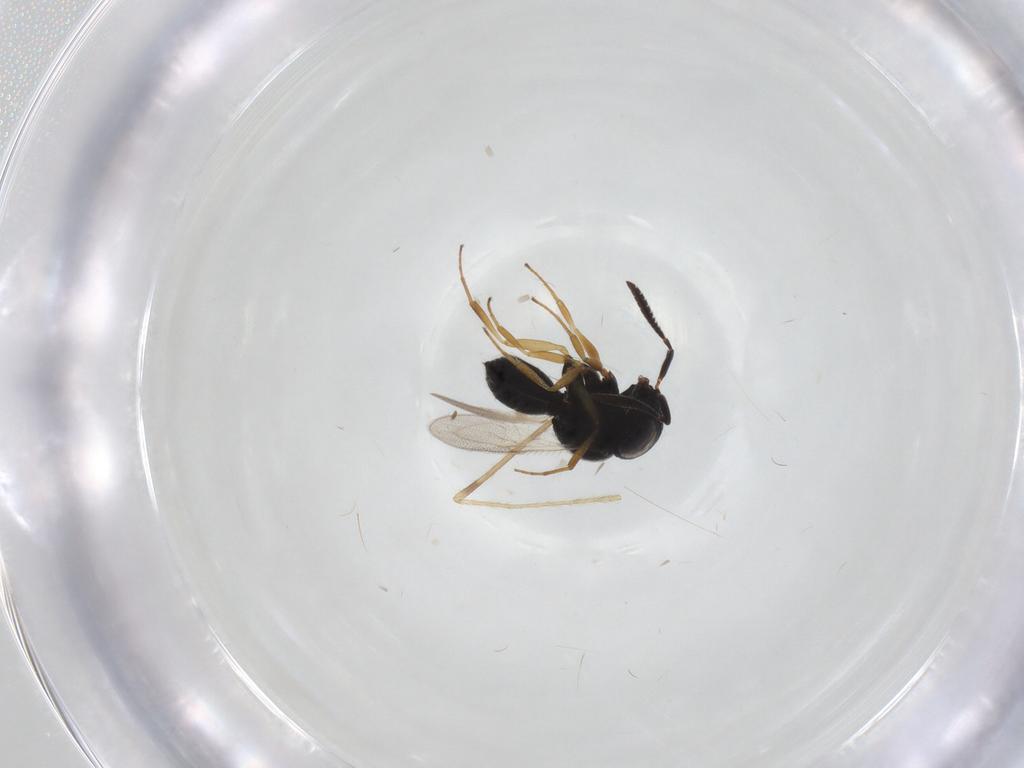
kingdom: Animalia
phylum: Arthropoda
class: Insecta
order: Hymenoptera
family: Scelionidae
